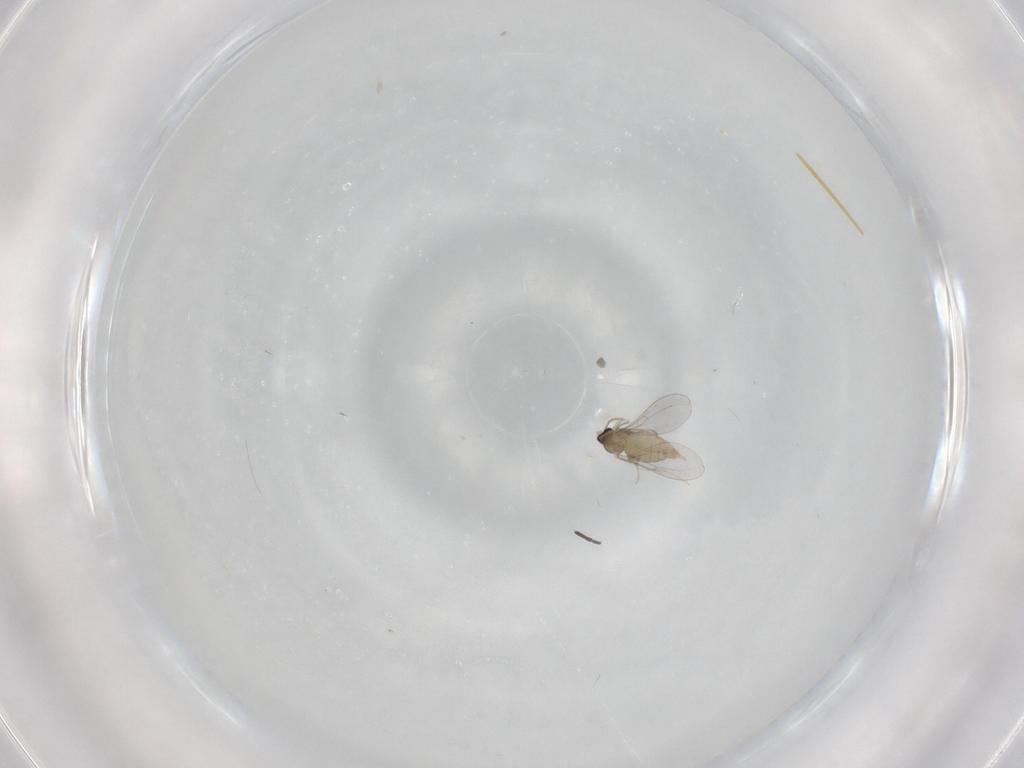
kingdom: Animalia
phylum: Arthropoda
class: Insecta
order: Diptera
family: Cecidomyiidae
